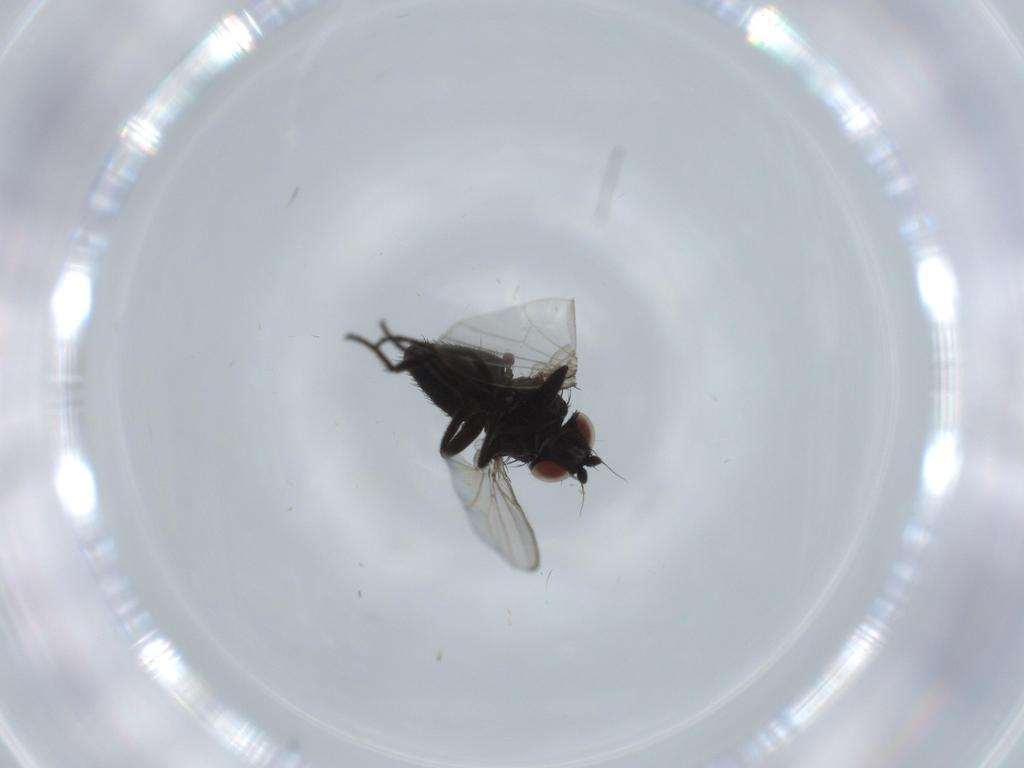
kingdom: Animalia
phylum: Arthropoda
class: Insecta
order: Diptera
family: Milichiidae
